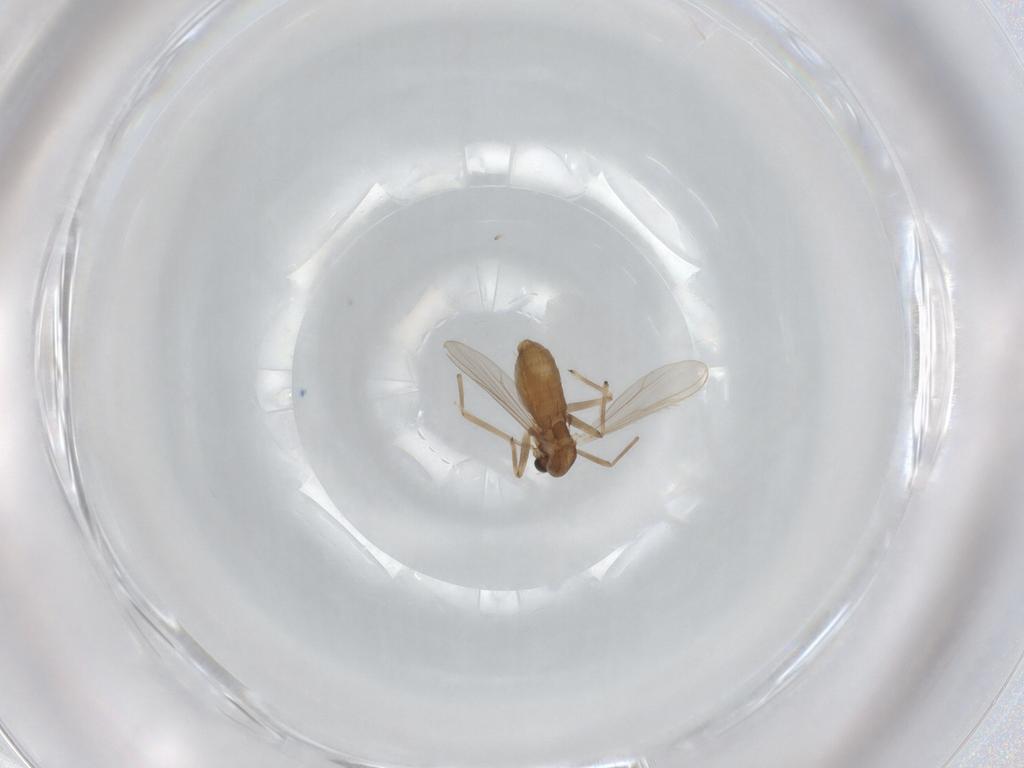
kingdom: Animalia
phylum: Arthropoda
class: Insecta
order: Diptera
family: Chironomidae
